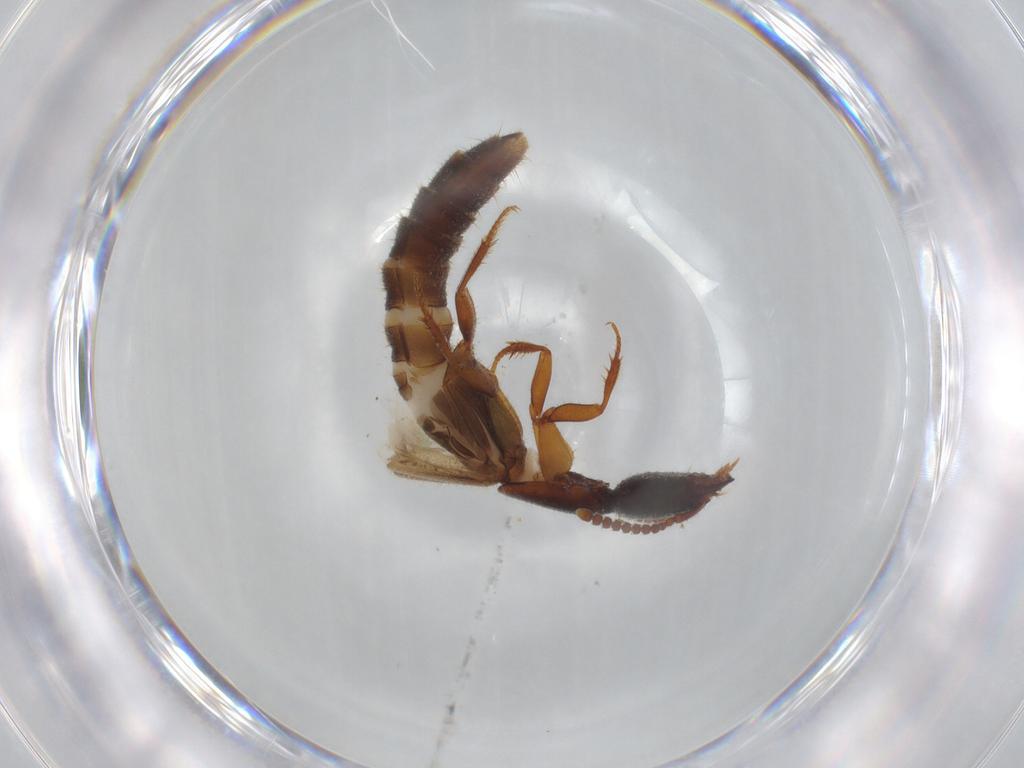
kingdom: Animalia
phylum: Arthropoda
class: Insecta
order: Coleoptera
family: Staphylinidae
